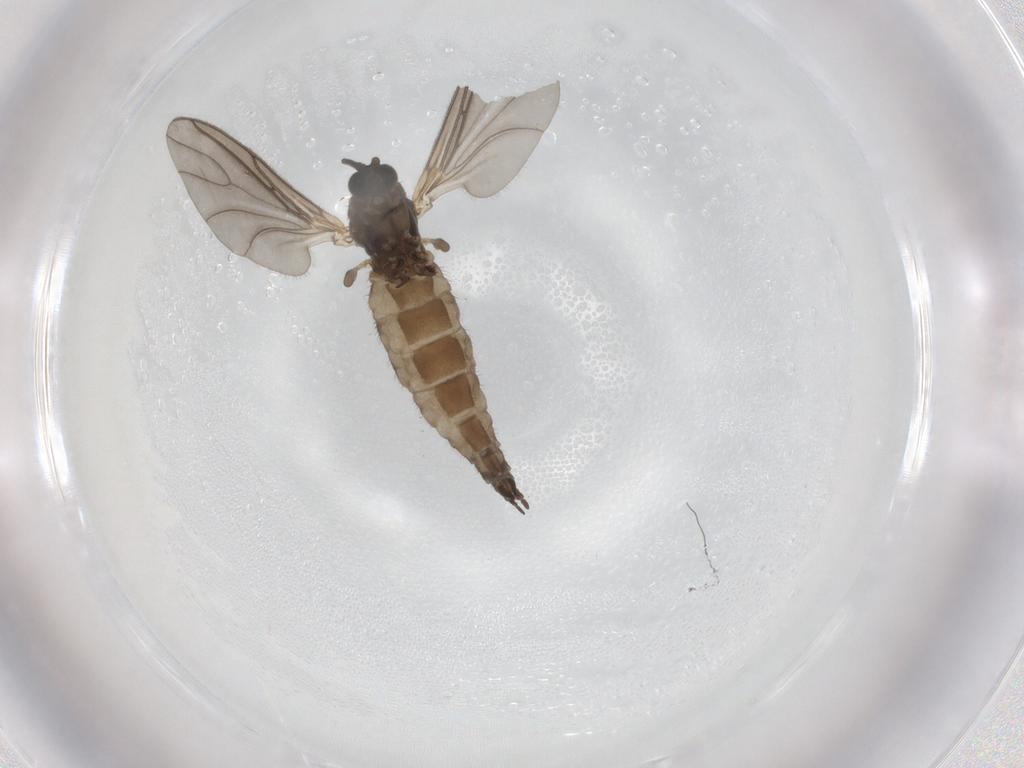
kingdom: Animalia
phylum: Arthropoda
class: Insecta
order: Diptera
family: Sciaridae
